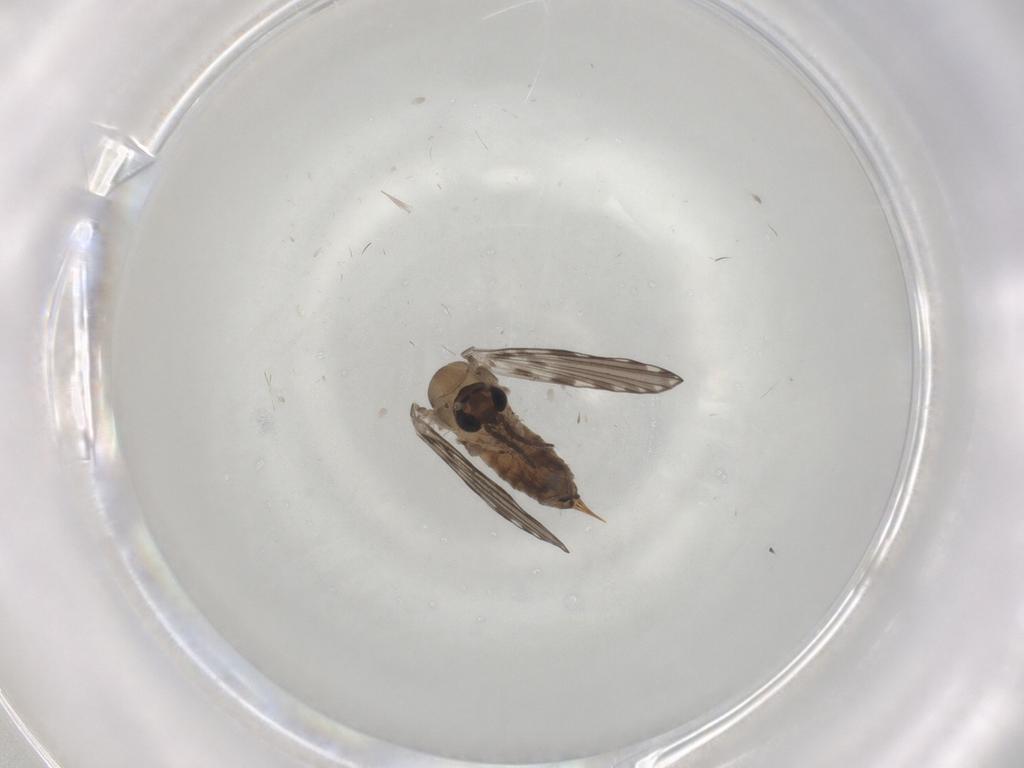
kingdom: Animalia
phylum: Arthropoda
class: Insecta
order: Diptera
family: Psychodidae
